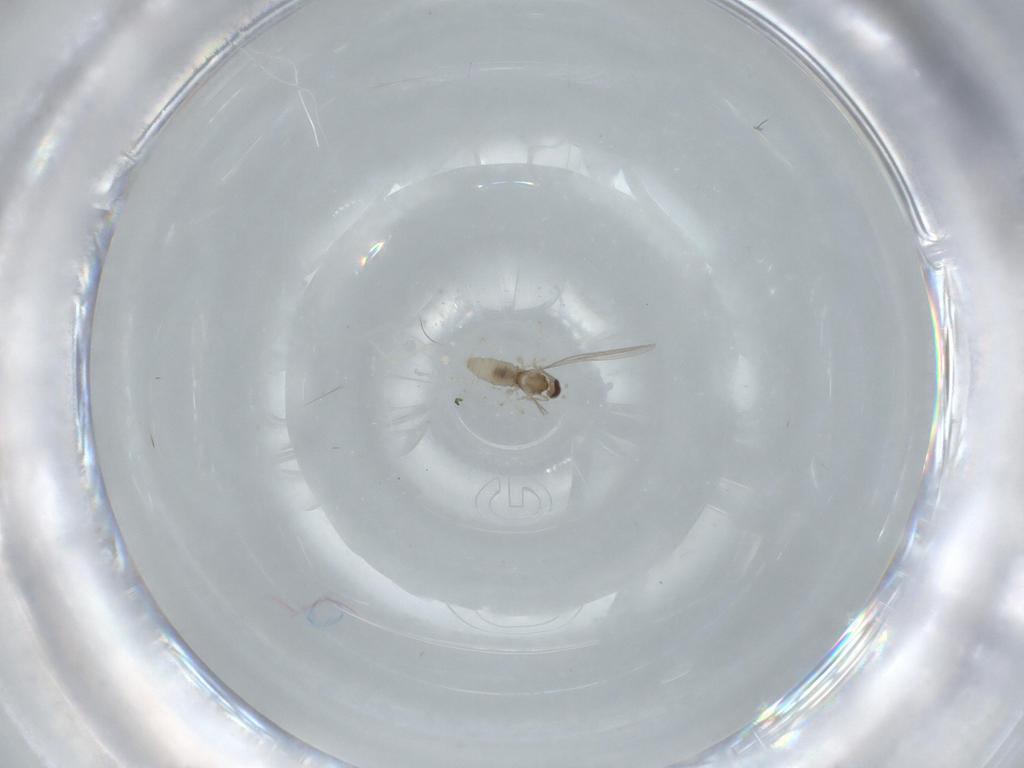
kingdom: Animalia
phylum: Arthropoda
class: Insecta
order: Diptera
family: Cecidomyiidae
